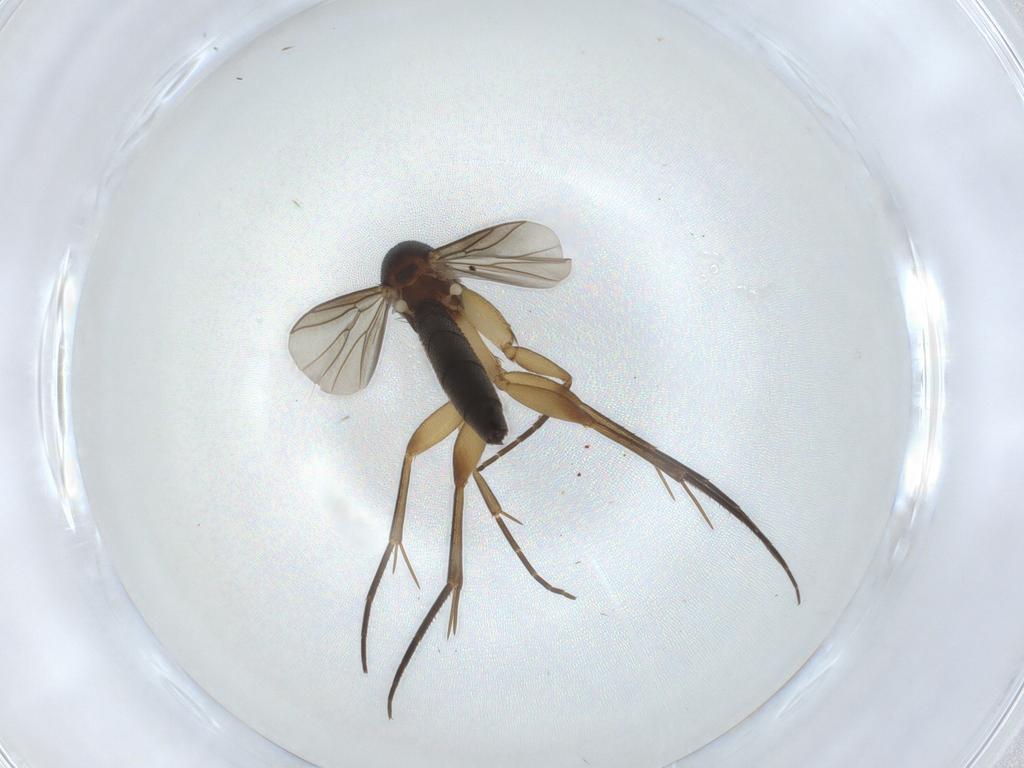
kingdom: Animalia
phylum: Arthropoda
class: Insecta
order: Diptera
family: Mycetophilidae
